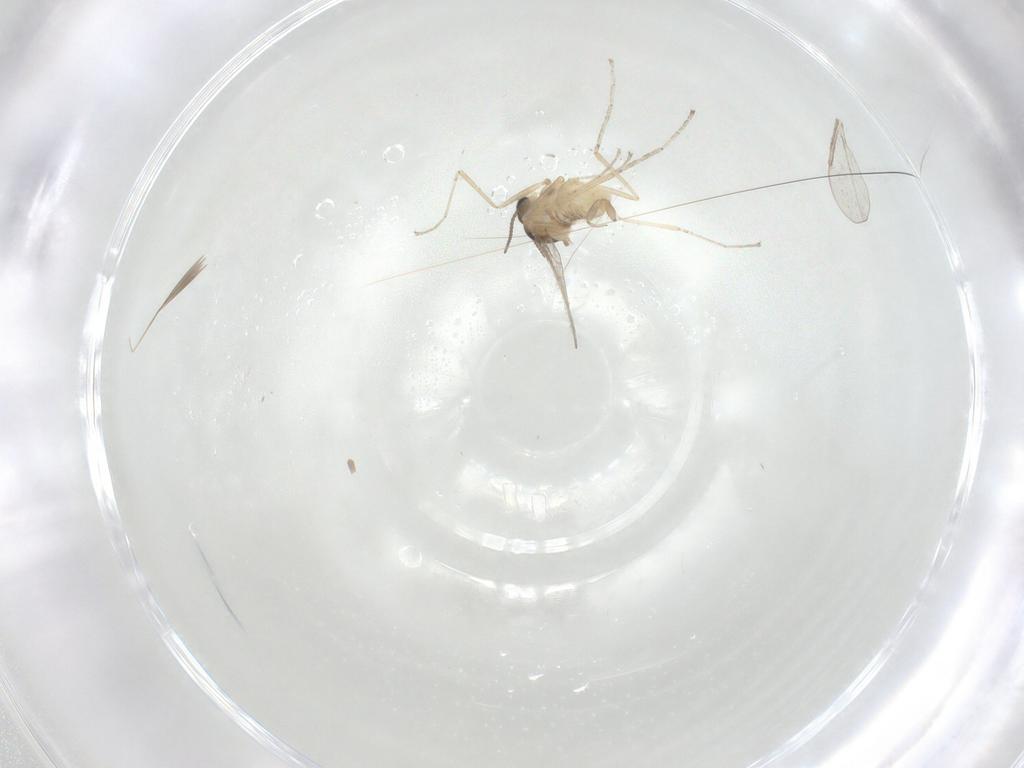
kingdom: Animalia
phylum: Arthropoda
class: Insecta
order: Diptera
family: Cecidomyiidae
